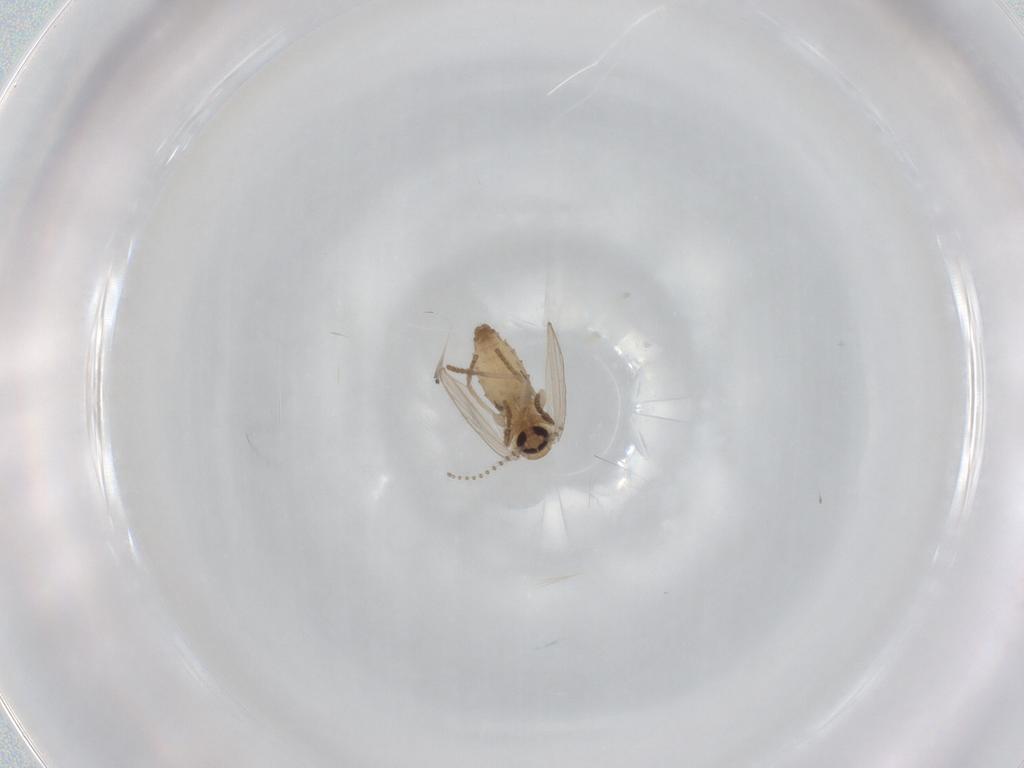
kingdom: Animalia
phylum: Arthropoda
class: Insecta
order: Diptera
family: Psychodidae
